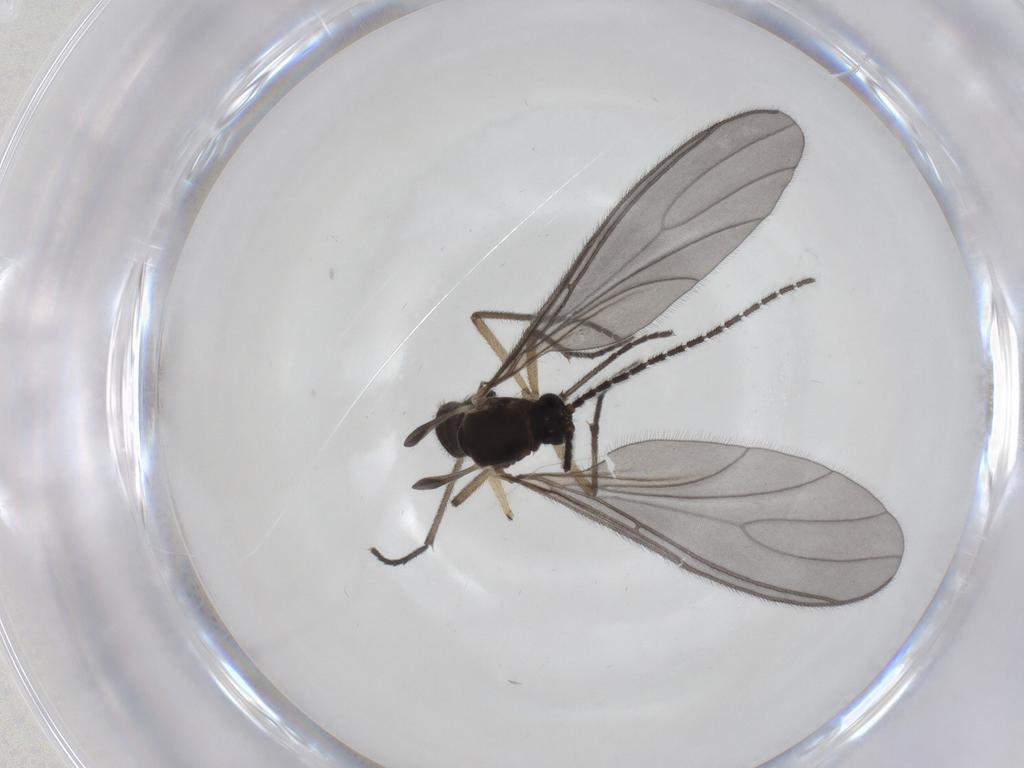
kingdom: Animalia
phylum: Arthropoda
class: Insecta
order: Diptera
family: Sciaridae
